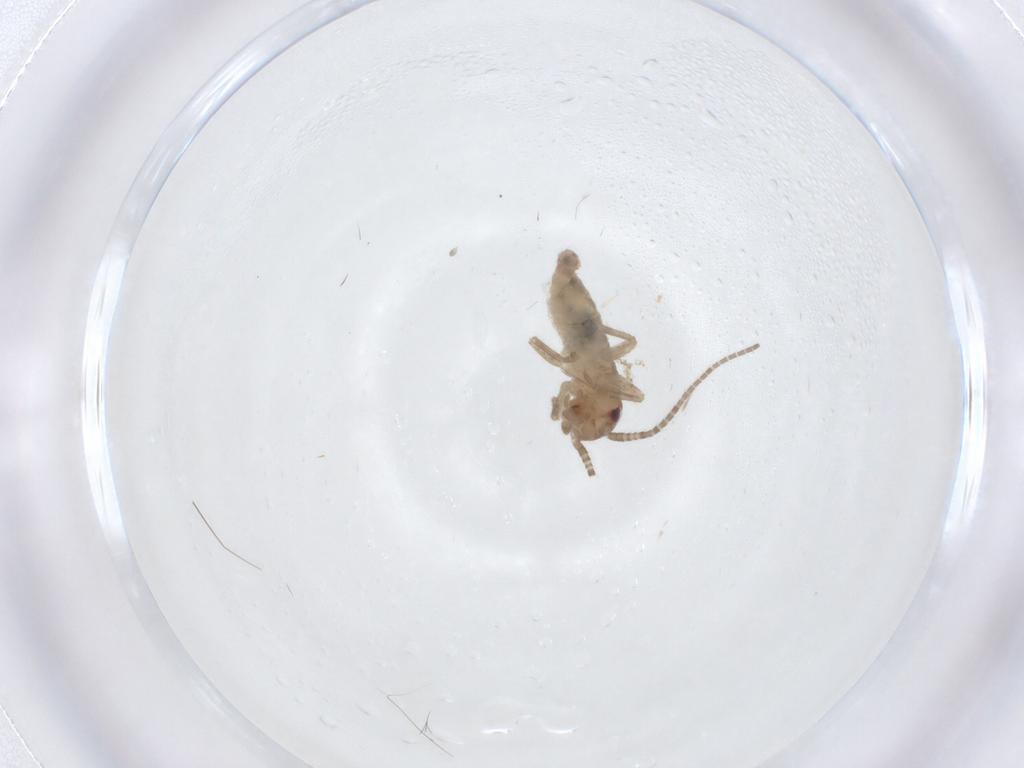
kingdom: Animalia
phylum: Arthropoda
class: Insecta
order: Orthoptera
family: Gryllidae
